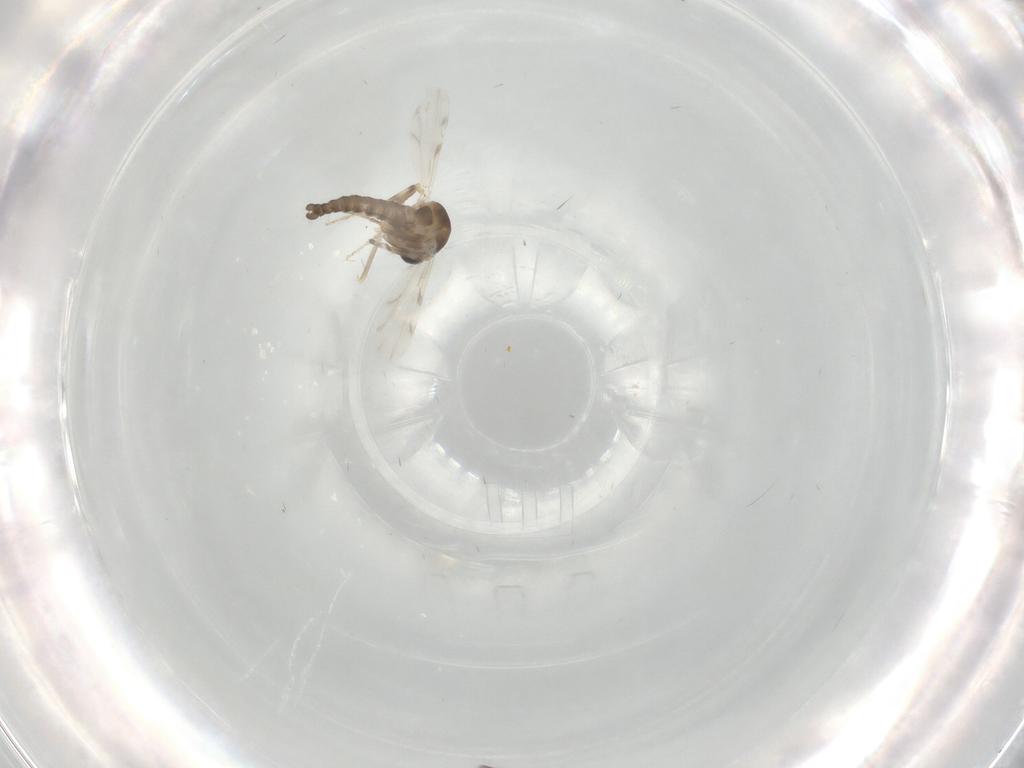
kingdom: Animalia
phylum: Arthropoda
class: Insecta
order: Diptera
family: Ceratopogonidae
